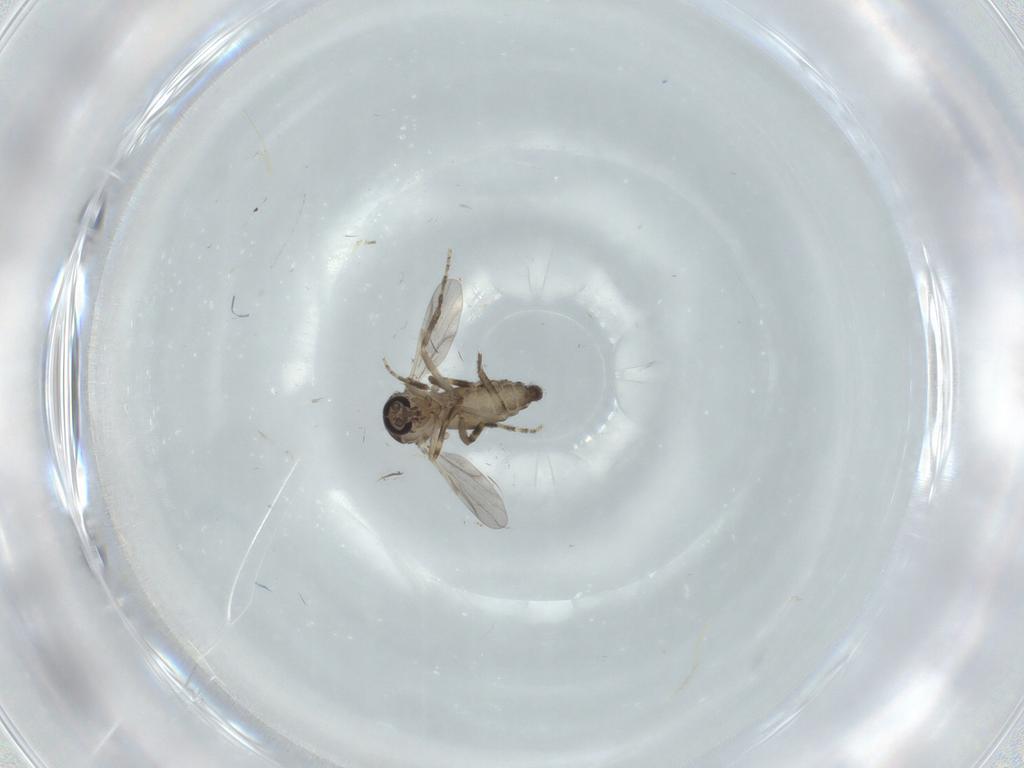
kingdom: Animalia
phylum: Arthropoda
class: Insecta
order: Diptera
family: Ceratopogonidae
